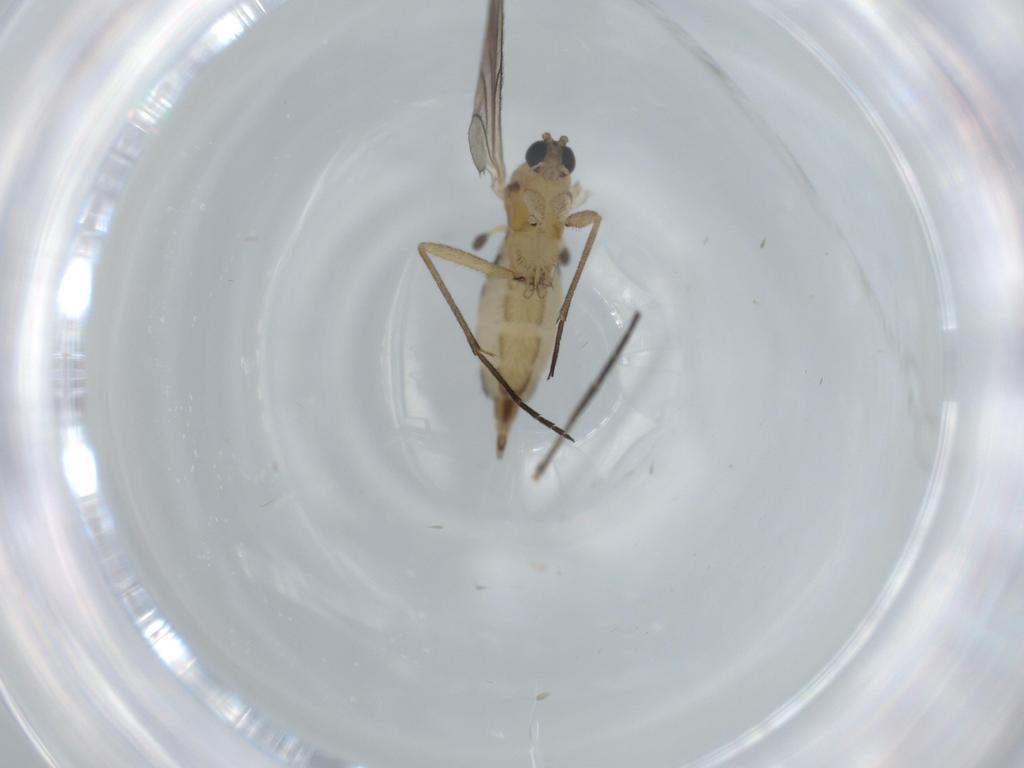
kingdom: Animalia
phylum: Arthropoda
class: Insecta
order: Diptera
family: Mycetophilidae
